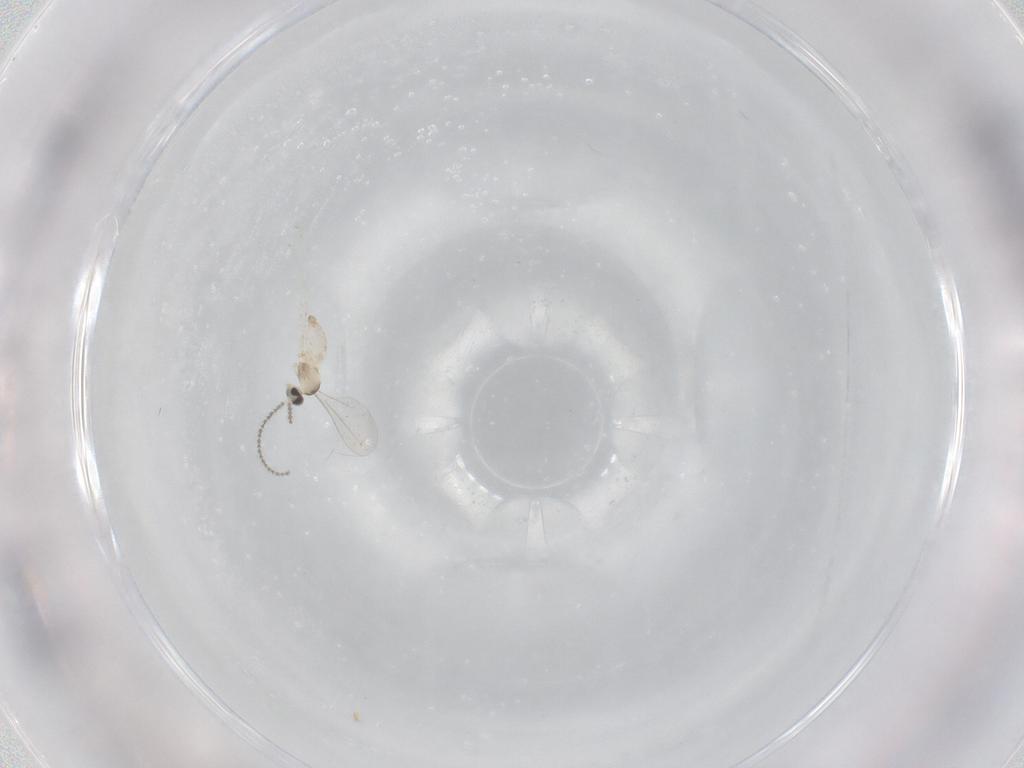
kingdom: Animalia
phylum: Arthropoda
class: Insecta
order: Diptera
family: Cecidomyiidae
